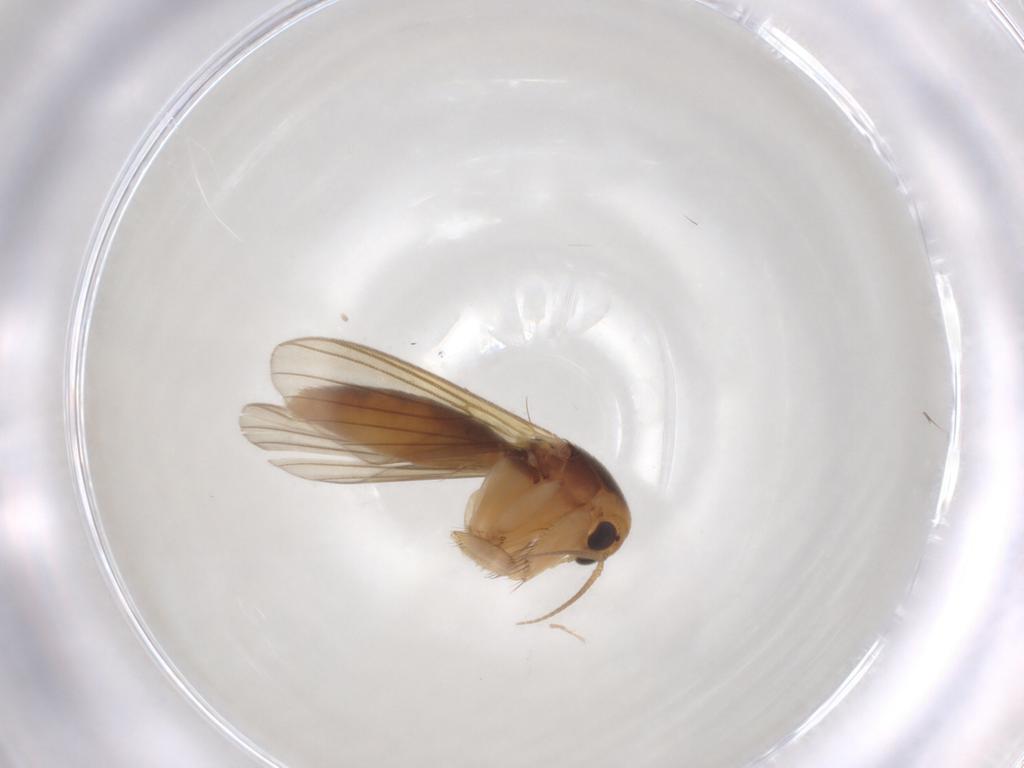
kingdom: Animalia
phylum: Arthropoda
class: Insecta
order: Diptera
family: Mycetophilidae
